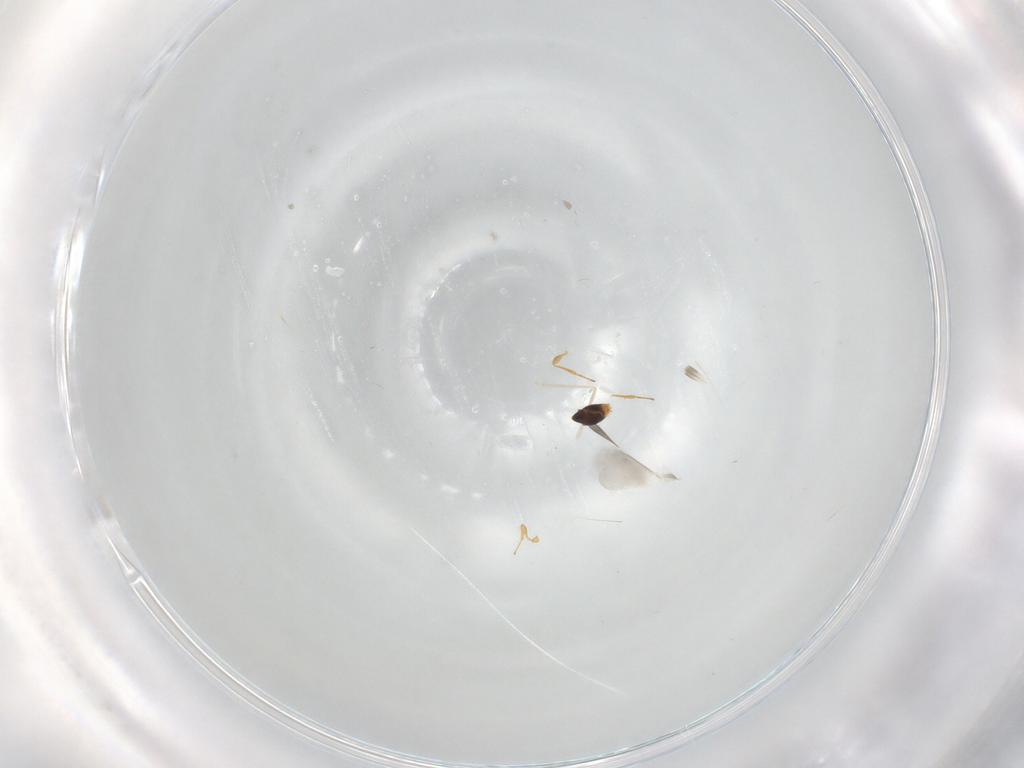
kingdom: Animalia
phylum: Arthropoda
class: Insecta
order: Hymenoptera
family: Platygastridae
